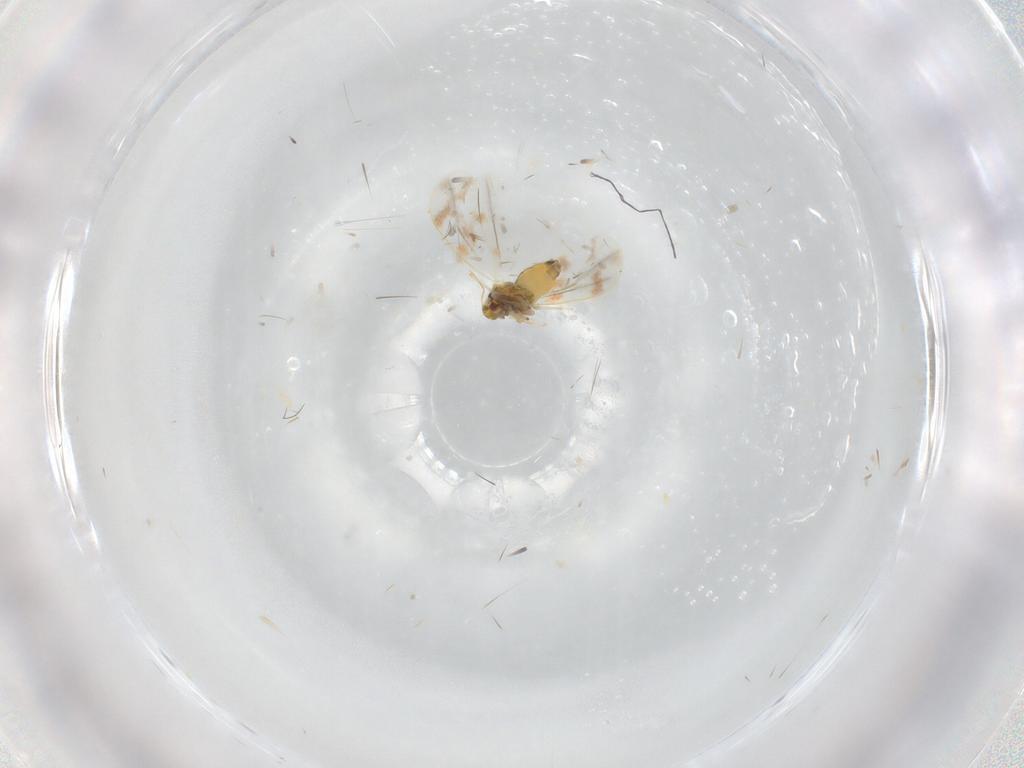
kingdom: Animalia
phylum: Arthropoda
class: Insecta
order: Hemiptera
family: Aleyrodidae
